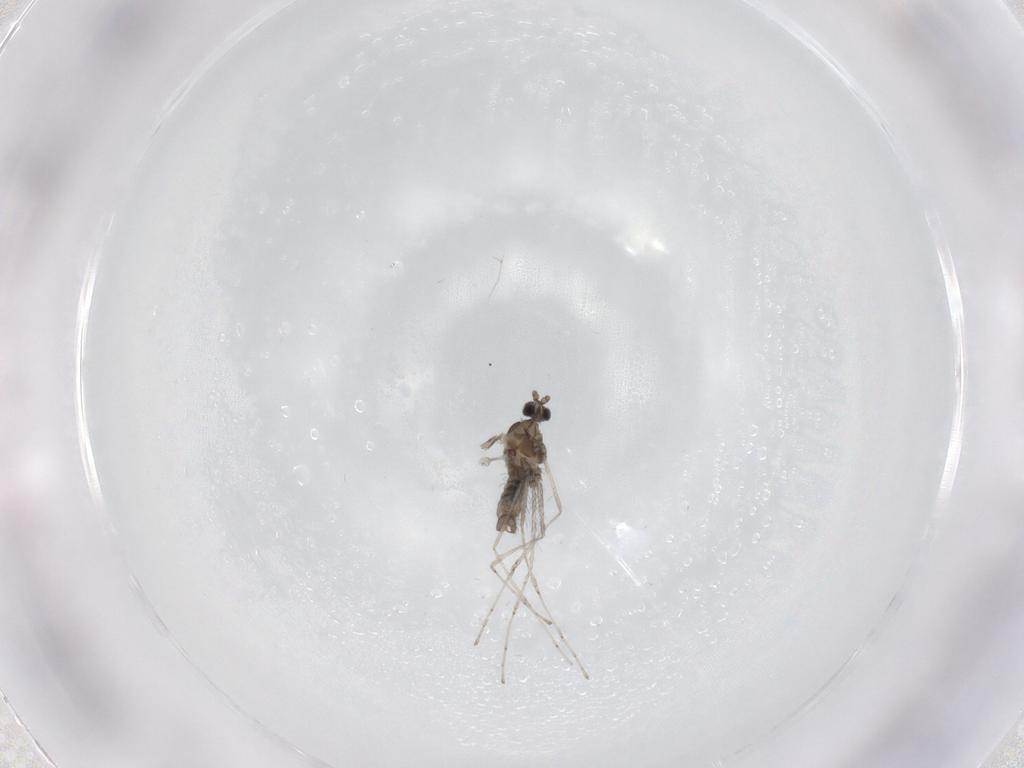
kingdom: Animalia
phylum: Arthropoda
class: Insecta
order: Diptera
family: Cecidomyiidae
